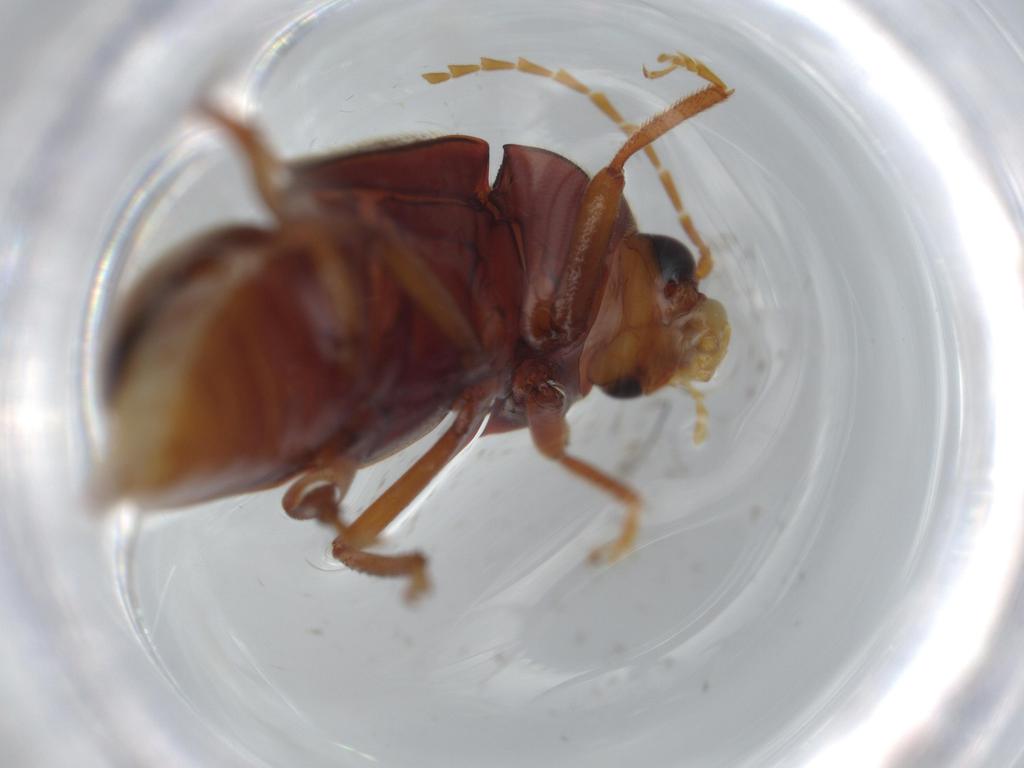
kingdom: Animalia
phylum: Arthropoda
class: Insecta
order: Coleoptera
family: Ptilodactylidae
